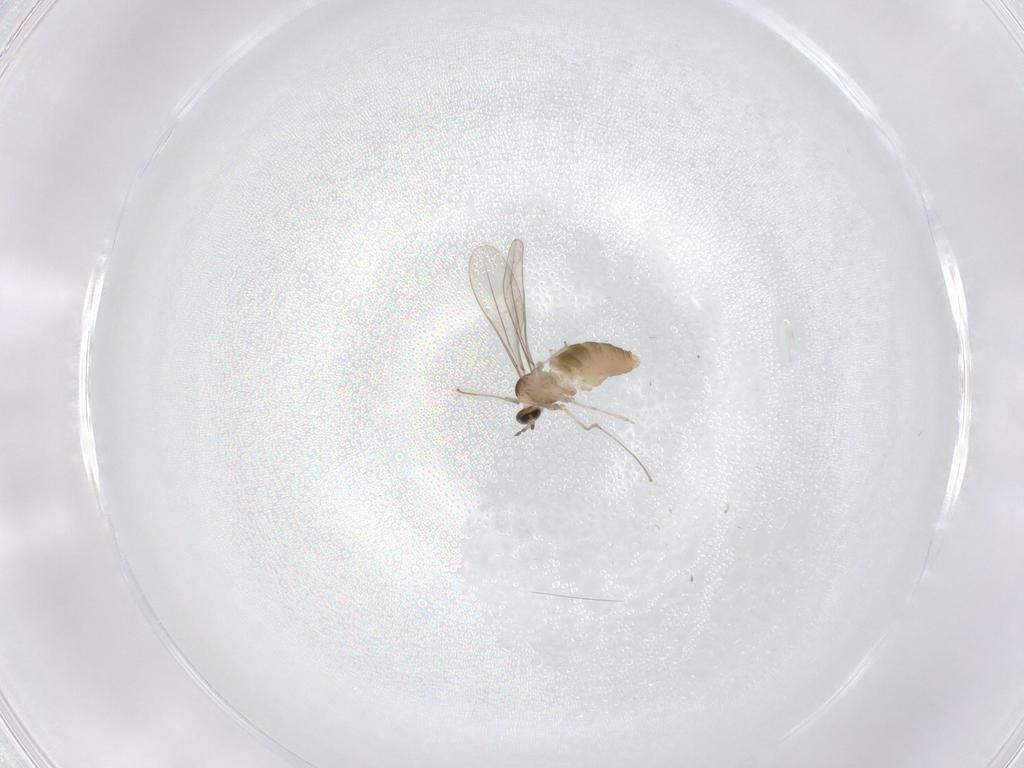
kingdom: Animalia
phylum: Arthropoda
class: Insecta
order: Diptera
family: Cecidomyiidae
